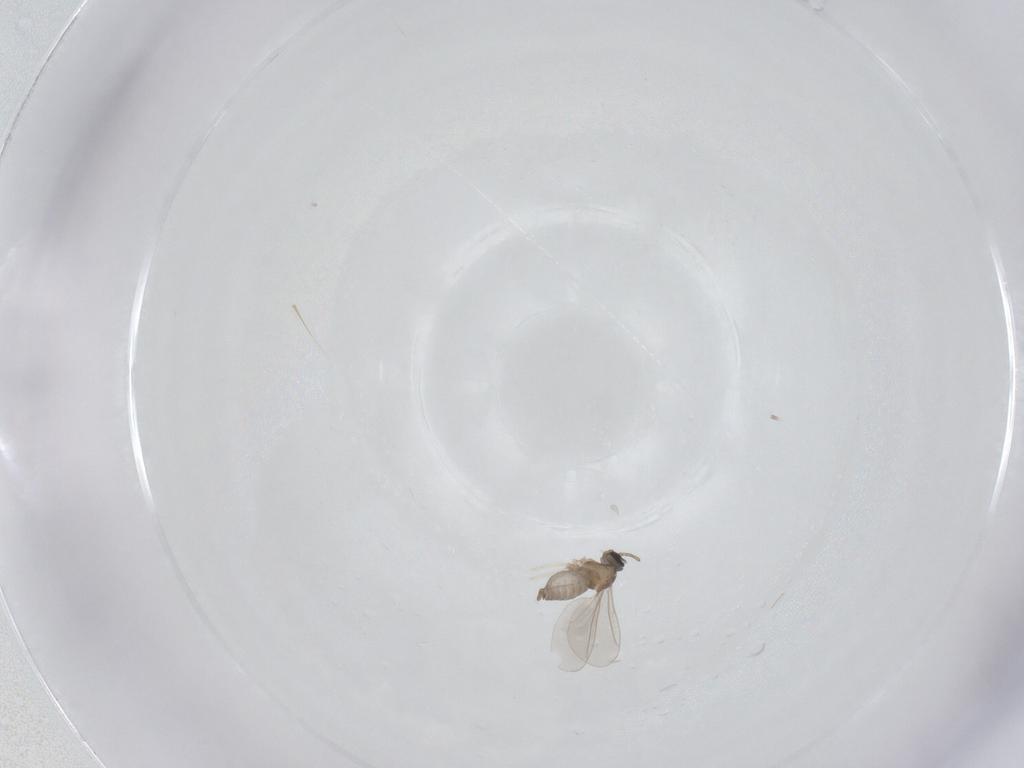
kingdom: Animalia
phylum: Arthropoda
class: Insecta
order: Diptera
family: Cecidomyiidae
